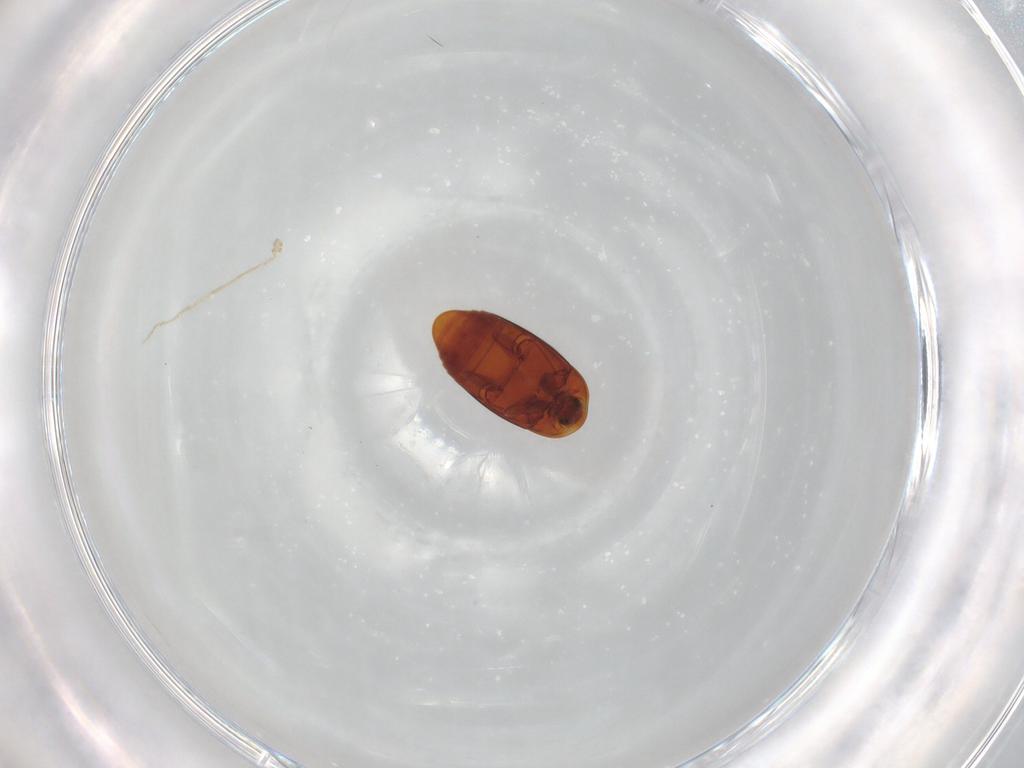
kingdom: Animalia
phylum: Arthropoda
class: Insecta
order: Coleoptera
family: Corylophidae
